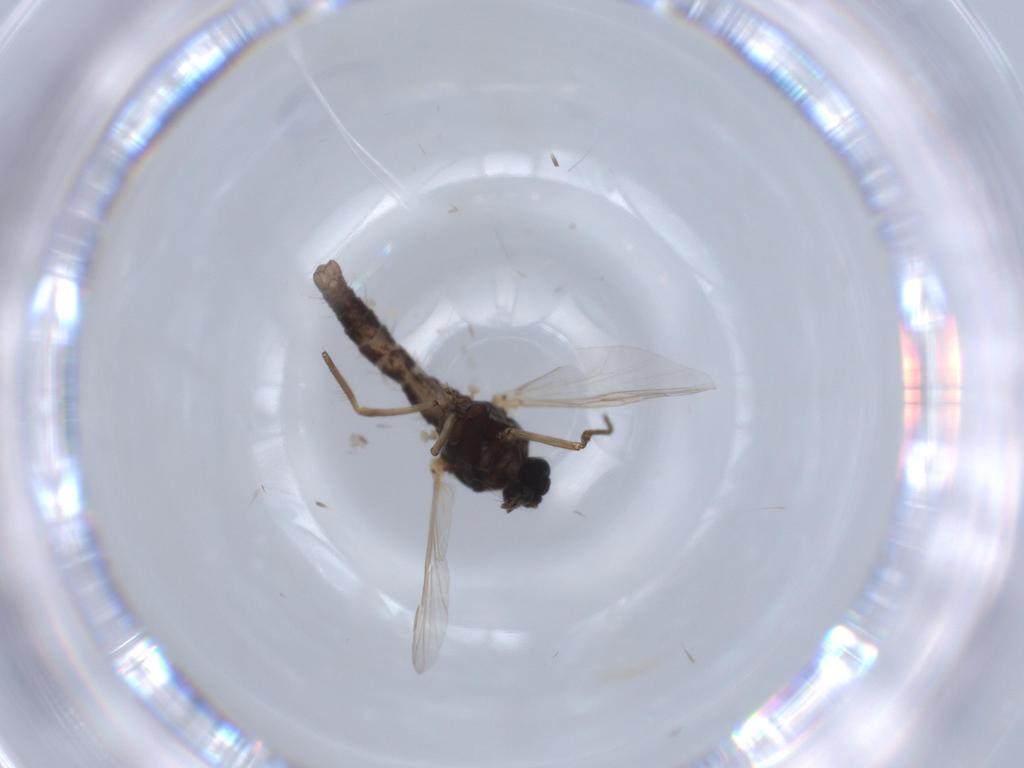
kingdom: Animalia
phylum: Arthropoda
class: Insecta
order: Diptera
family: Ceratopogonidae
